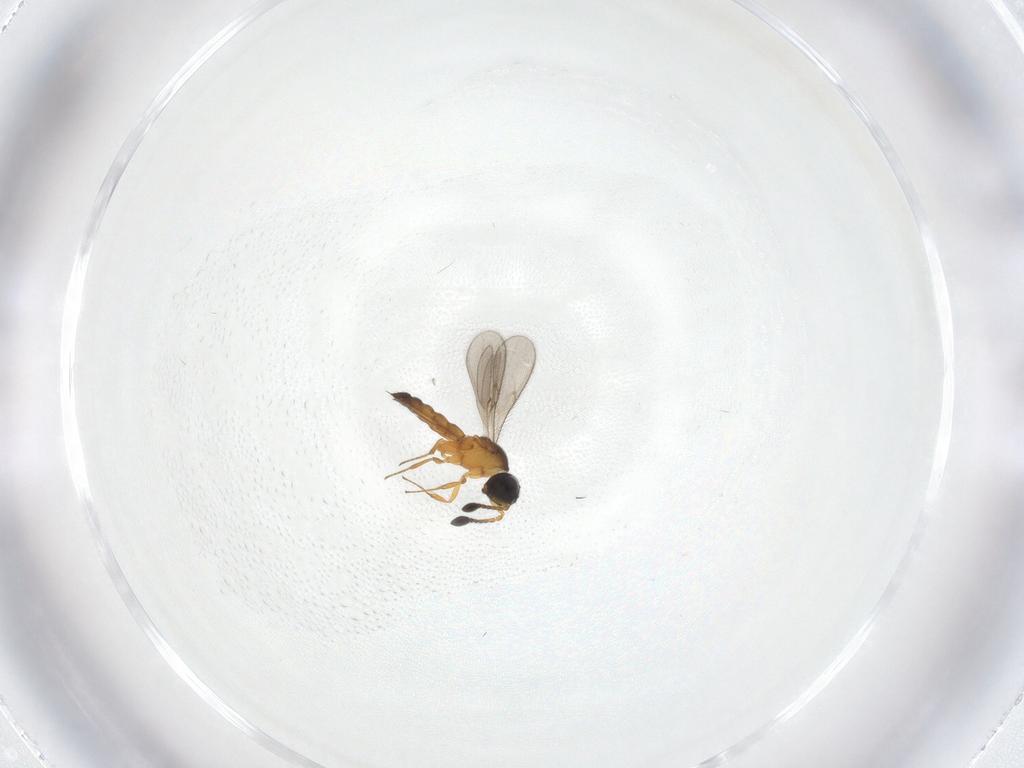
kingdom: Animalia
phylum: Arthropoda
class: Insecta
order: Hymenoptera
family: Scelionidae
